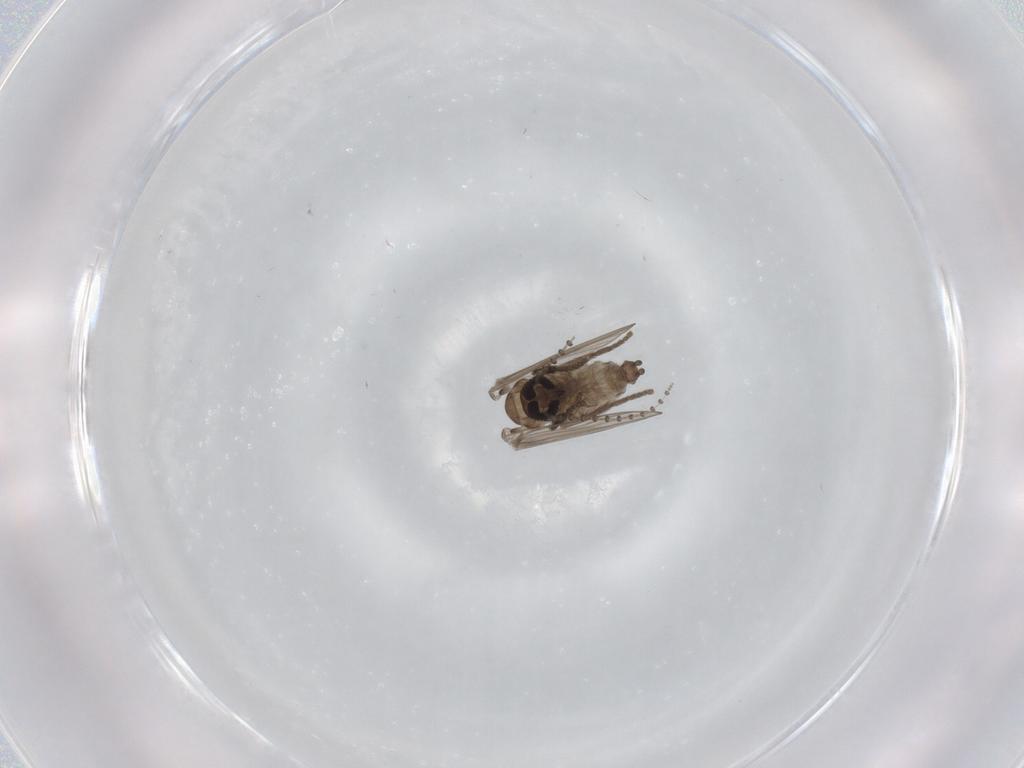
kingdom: Animalia
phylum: Arthropoda
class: Insecta
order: Diptera
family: Psychodidae
